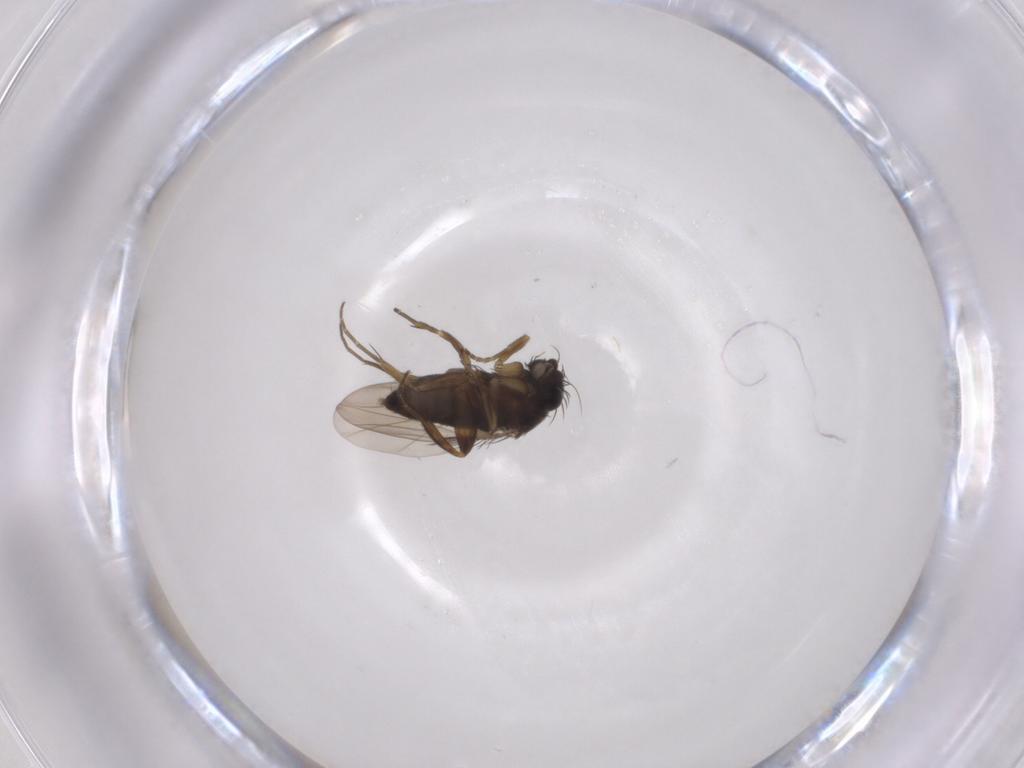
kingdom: Animalia
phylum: Arthropoda
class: Insecta
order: Diptera
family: Phoridae
